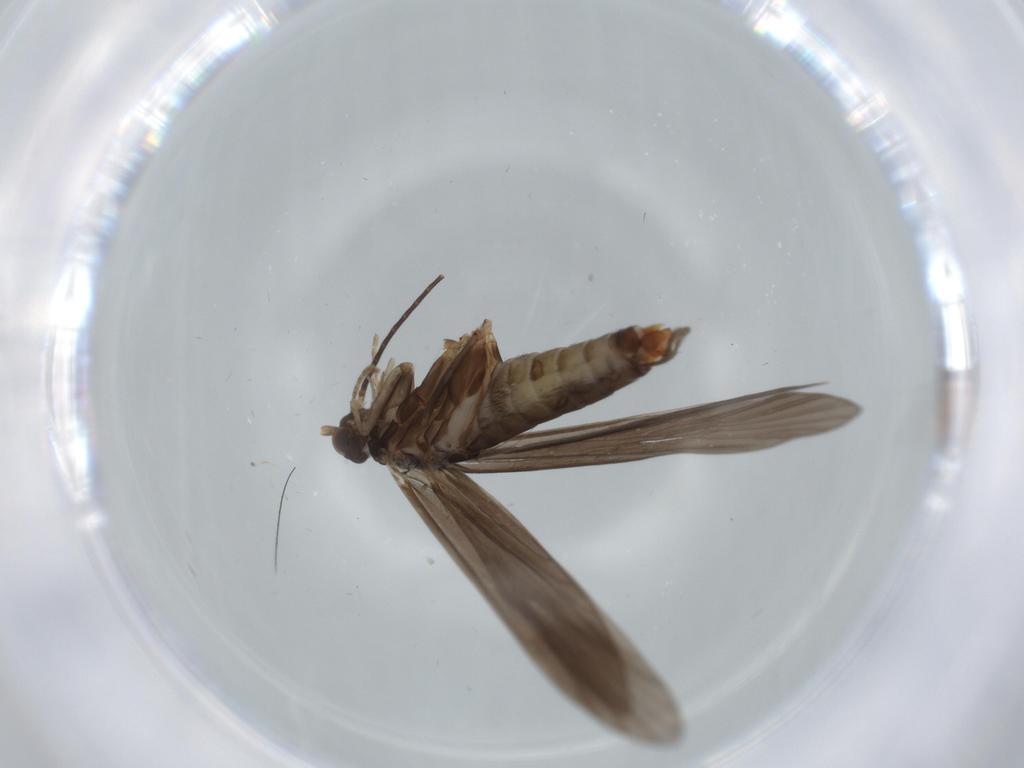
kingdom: Animalia
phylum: Arthropoda
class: Insecta
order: Trichoptera
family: Xiphocentronidae
